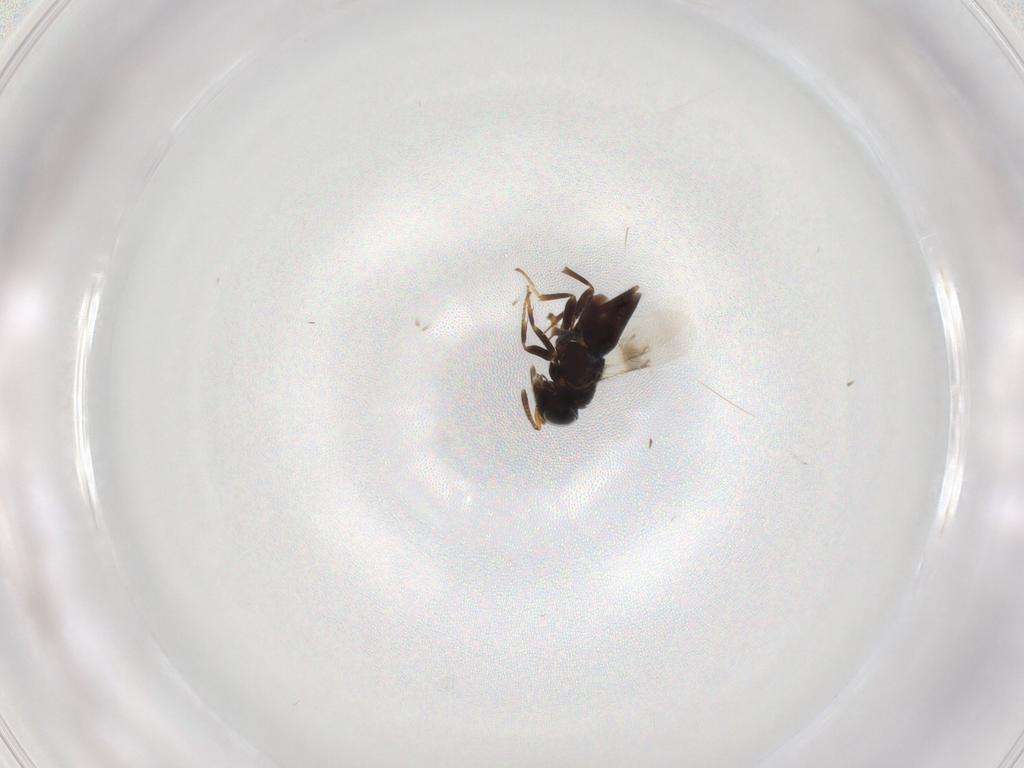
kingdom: Animalia
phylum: Arthropoda
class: Insecta
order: Hymenoptera
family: Encyrtidae
